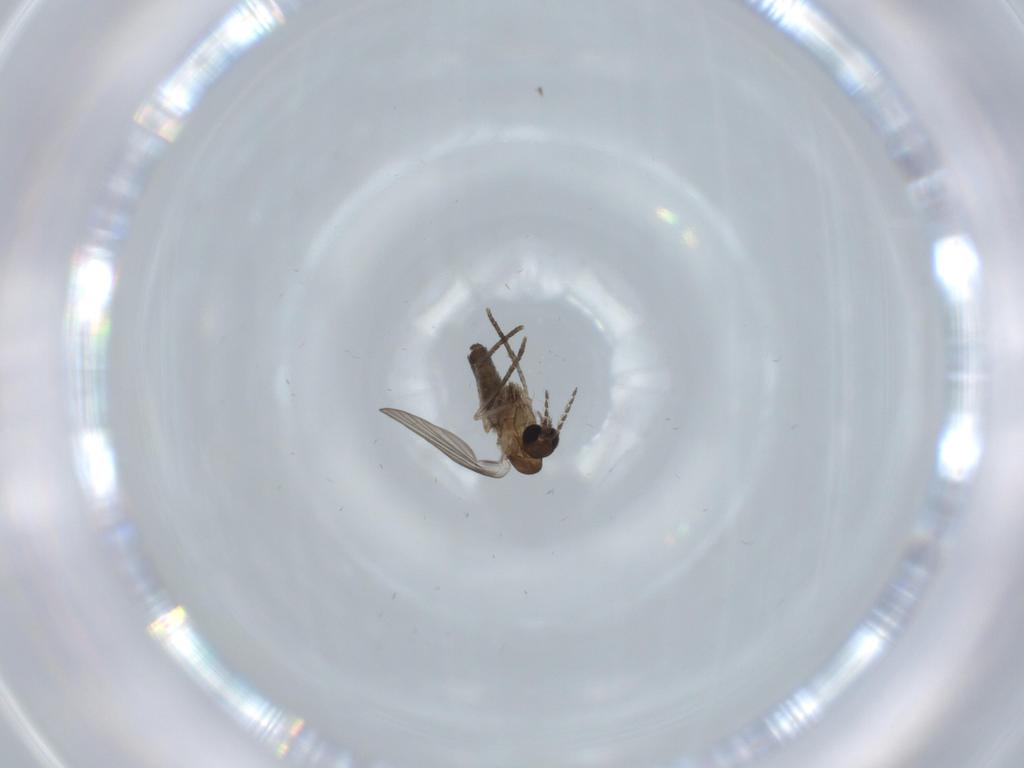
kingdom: Animalia
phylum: Arthropoda
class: Insecta
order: Diptera
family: Psychodidae
